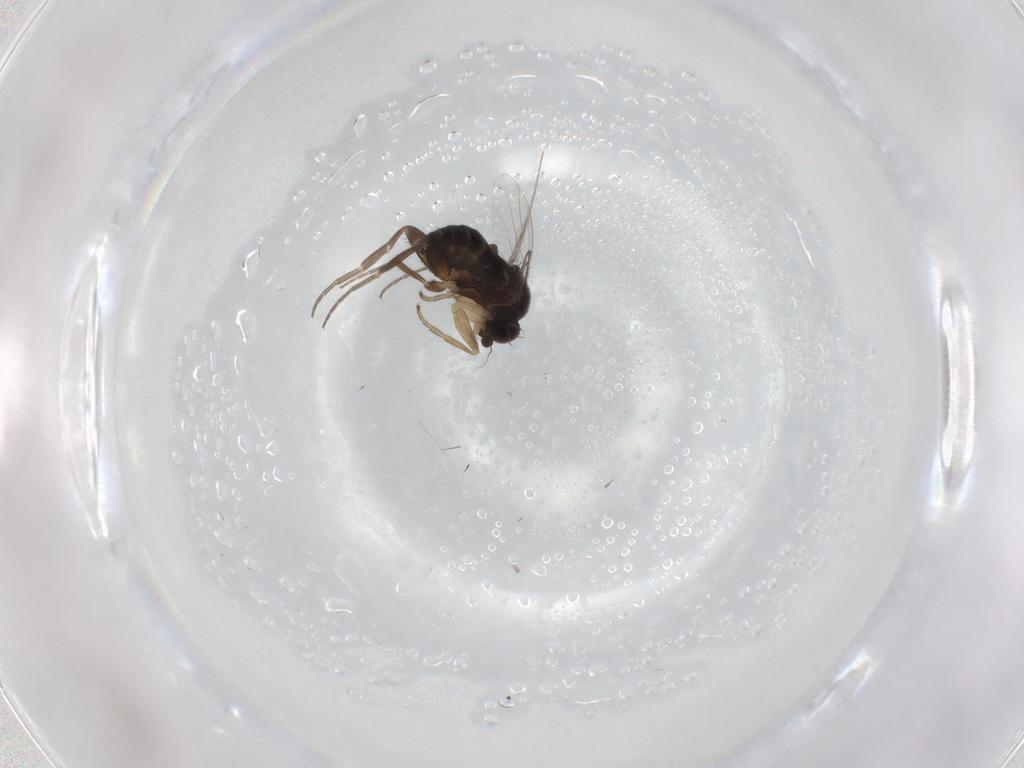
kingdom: Animalia
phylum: Arthropoda
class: Insecta
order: Diptera
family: Phoridae
